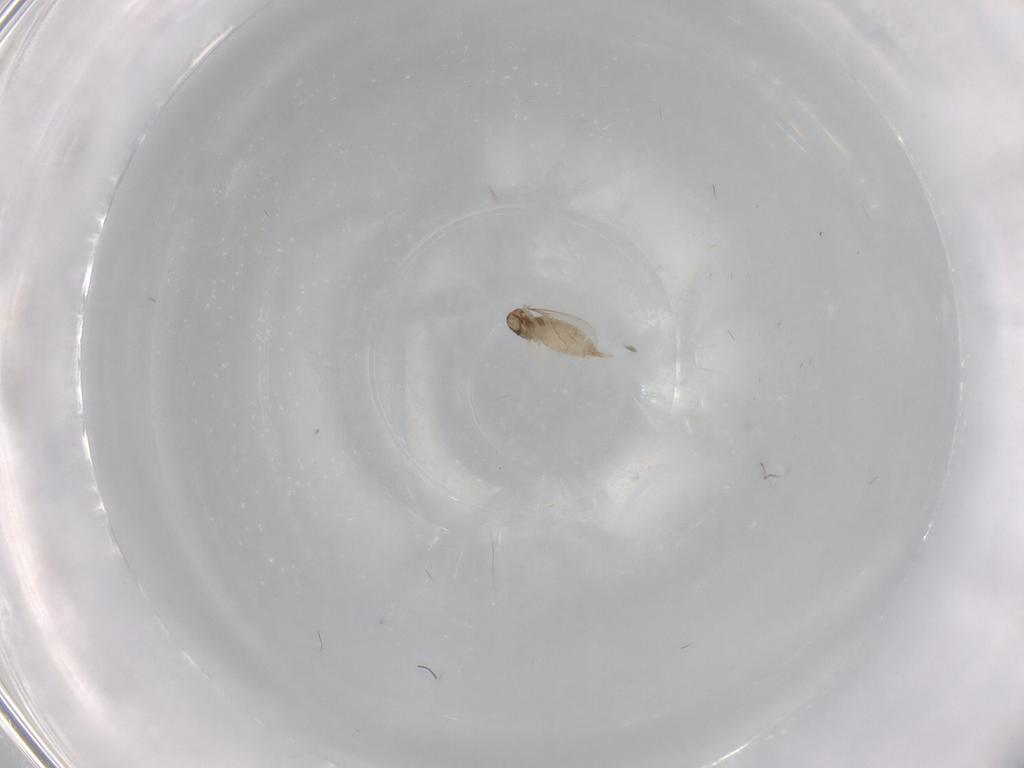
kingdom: Animalia
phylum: Arthropoda
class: Insecta
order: Diptera
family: Cecidomyiidae
